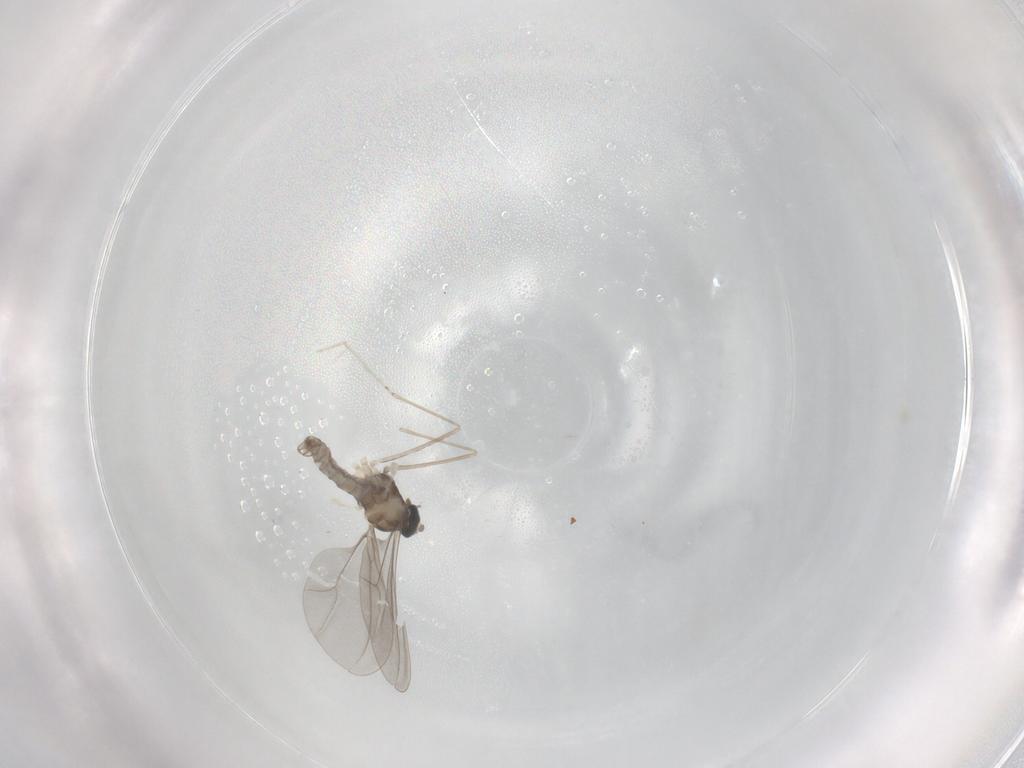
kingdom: Animalia
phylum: Arthropoda
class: Insecta
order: Diptera
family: Cecidomyiidae
